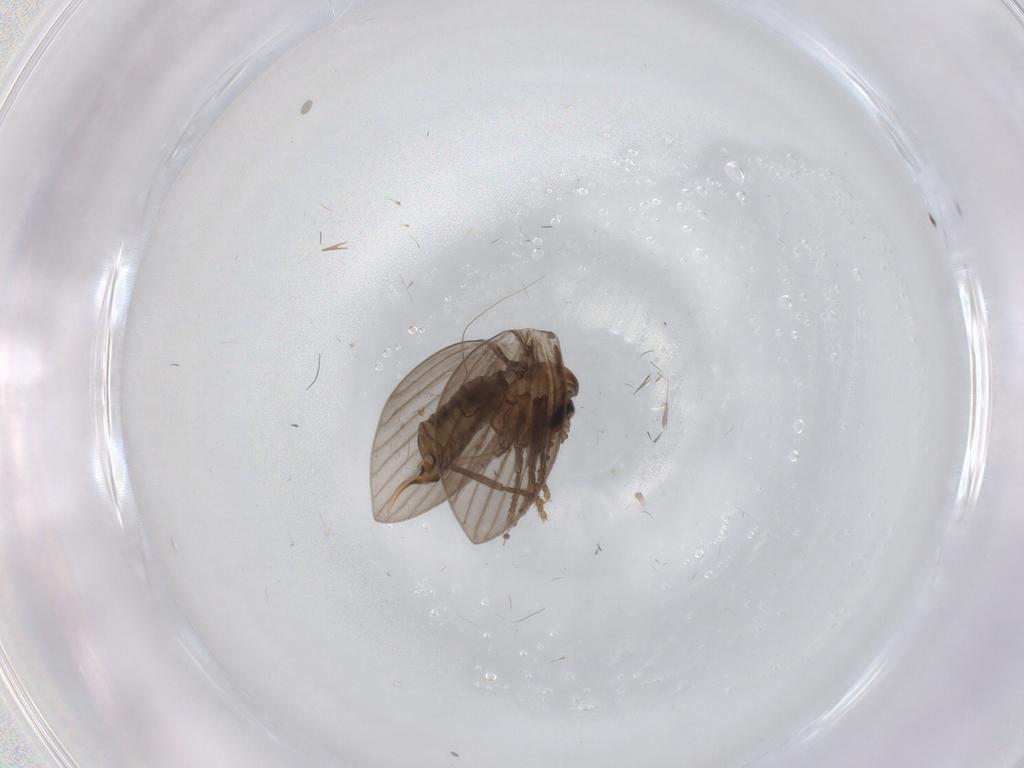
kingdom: Animalia
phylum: Arthropoda
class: Insecta
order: Diptera
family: Psychodidae
